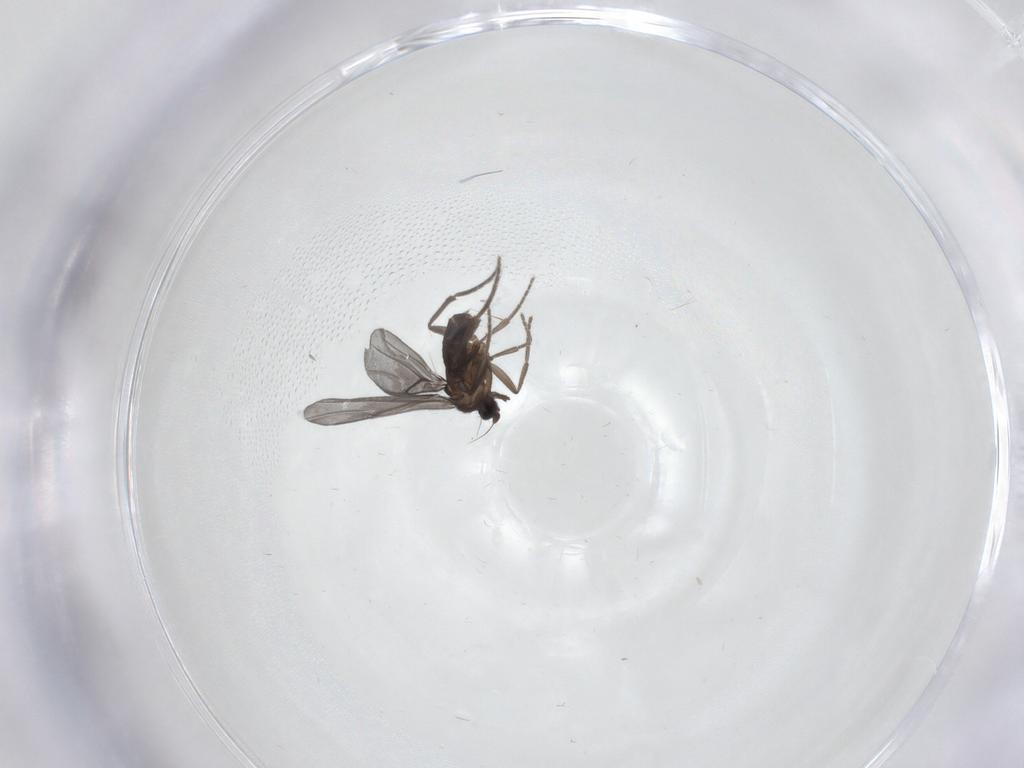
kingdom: Animalia
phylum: Arthropoda
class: Insecta
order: Diptera
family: Phoridae
